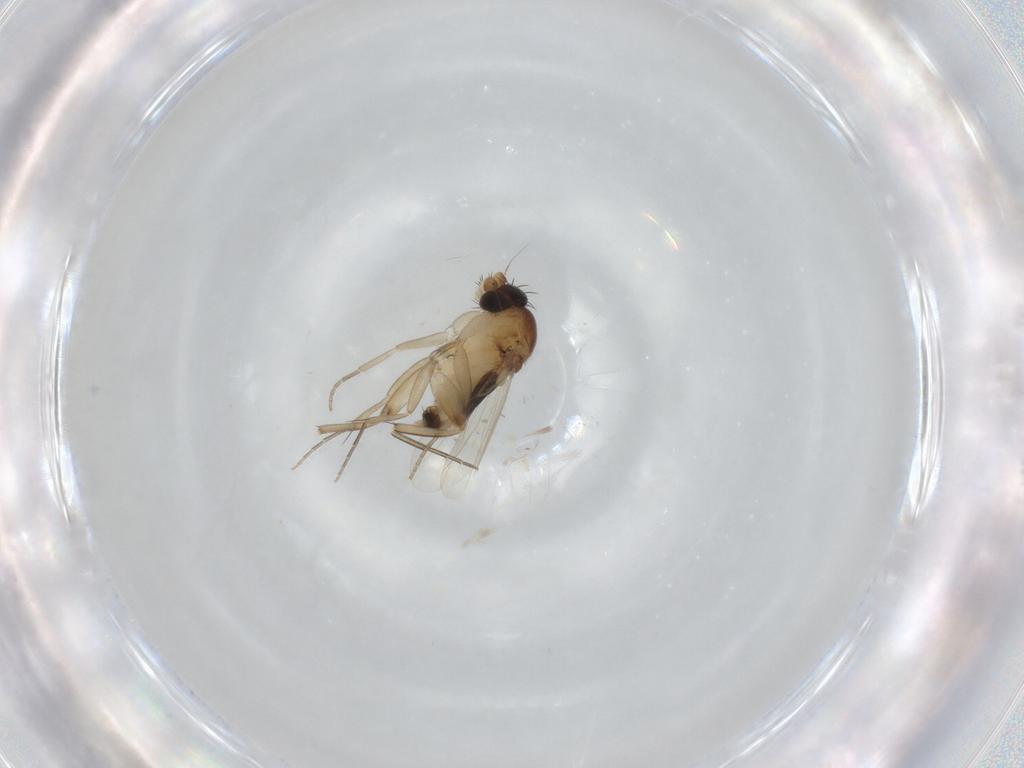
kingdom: Animalia
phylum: Arthropoda
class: Insecta
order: Diptera
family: Phoridae
